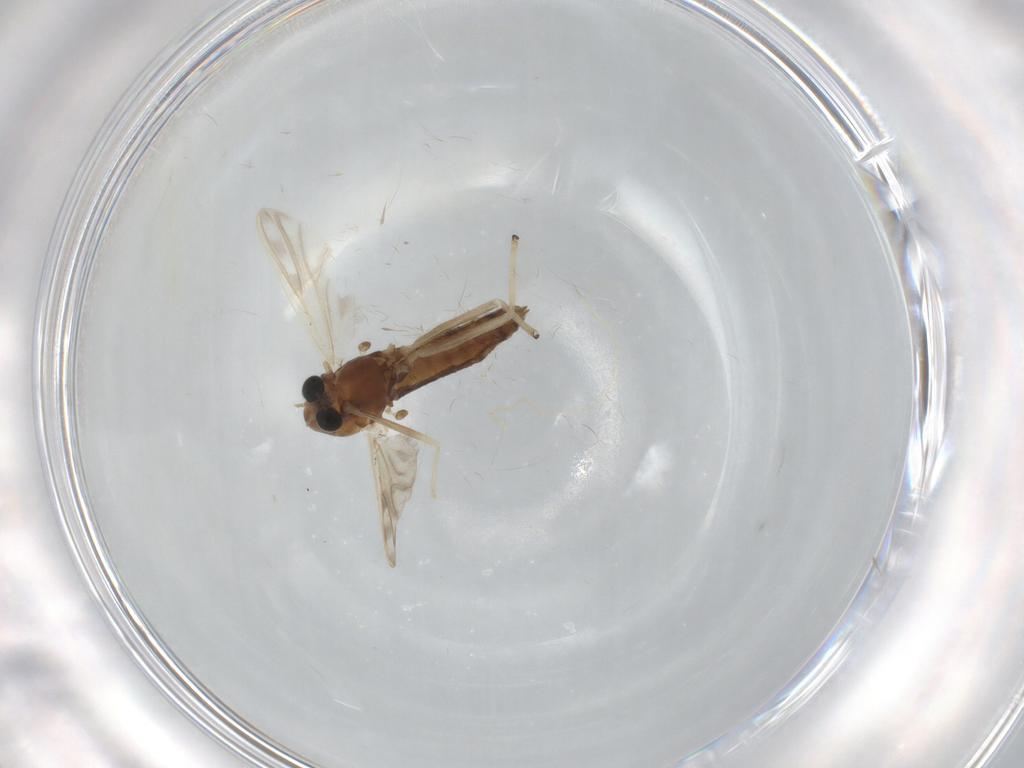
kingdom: Animalia
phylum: Arthropoda
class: Insecta
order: Diptera
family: Chironomidae
